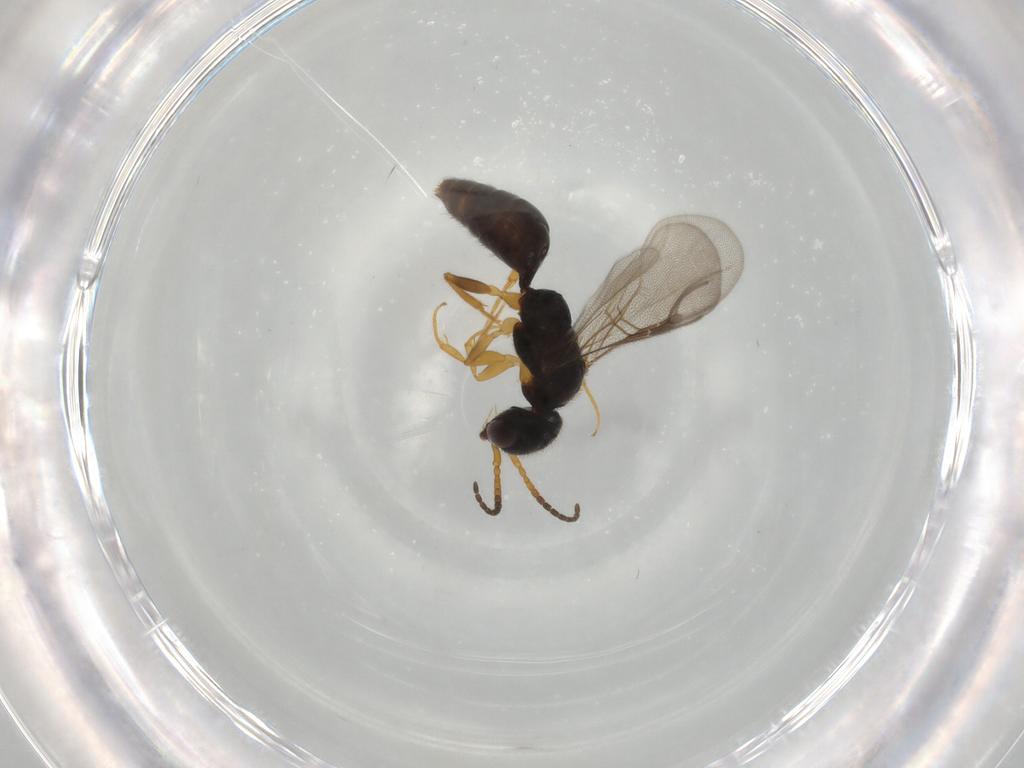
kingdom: Animalia
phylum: Arthropoda
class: Insecta
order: Hymenoptera
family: Bethylidae
